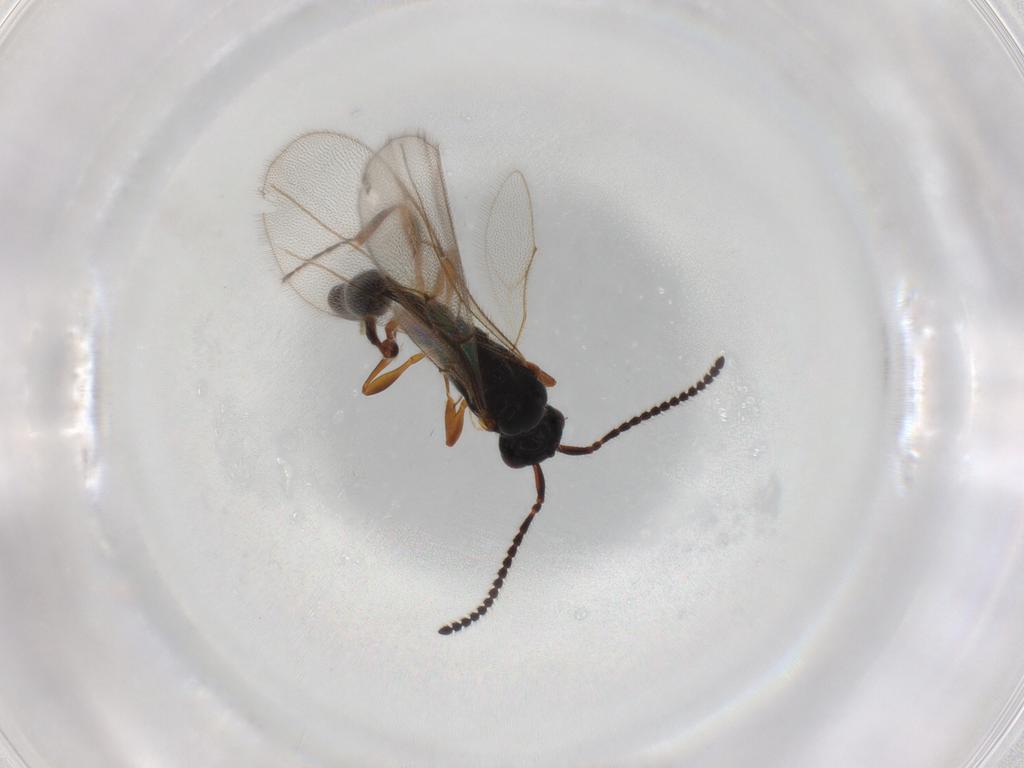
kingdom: Animalia
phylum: Arthropoda
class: Insecta
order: Hymenoptera
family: Diapriidae
